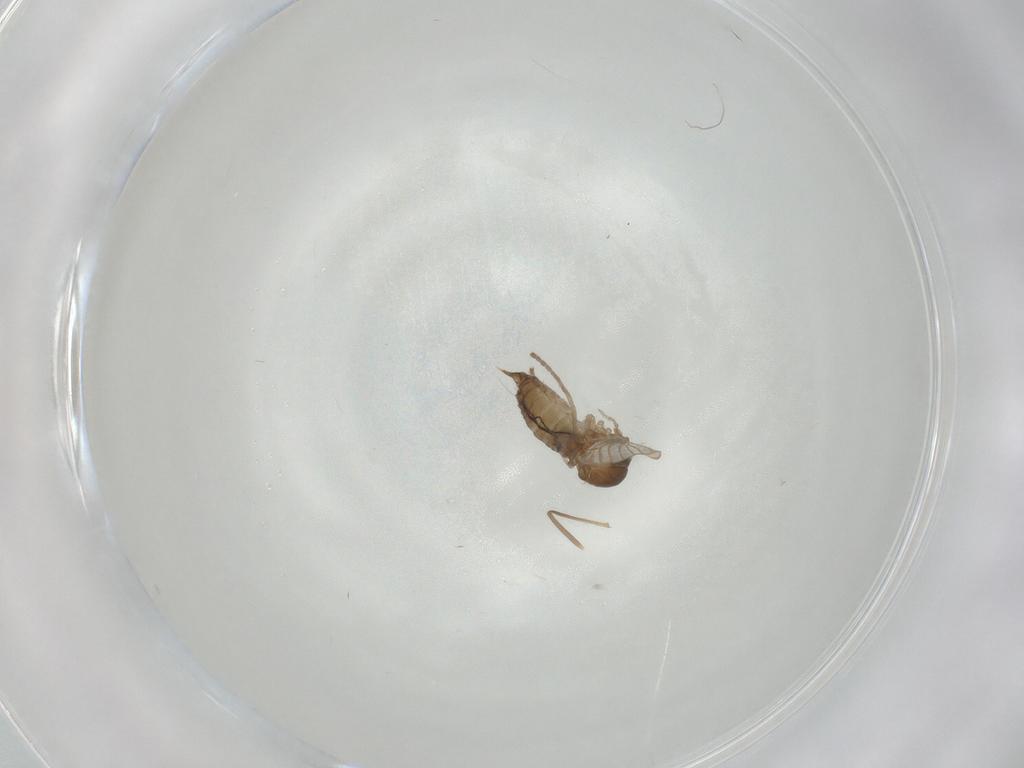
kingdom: Animalia
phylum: Arthropoda
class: Insecta
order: Diptera
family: Psychodidae
